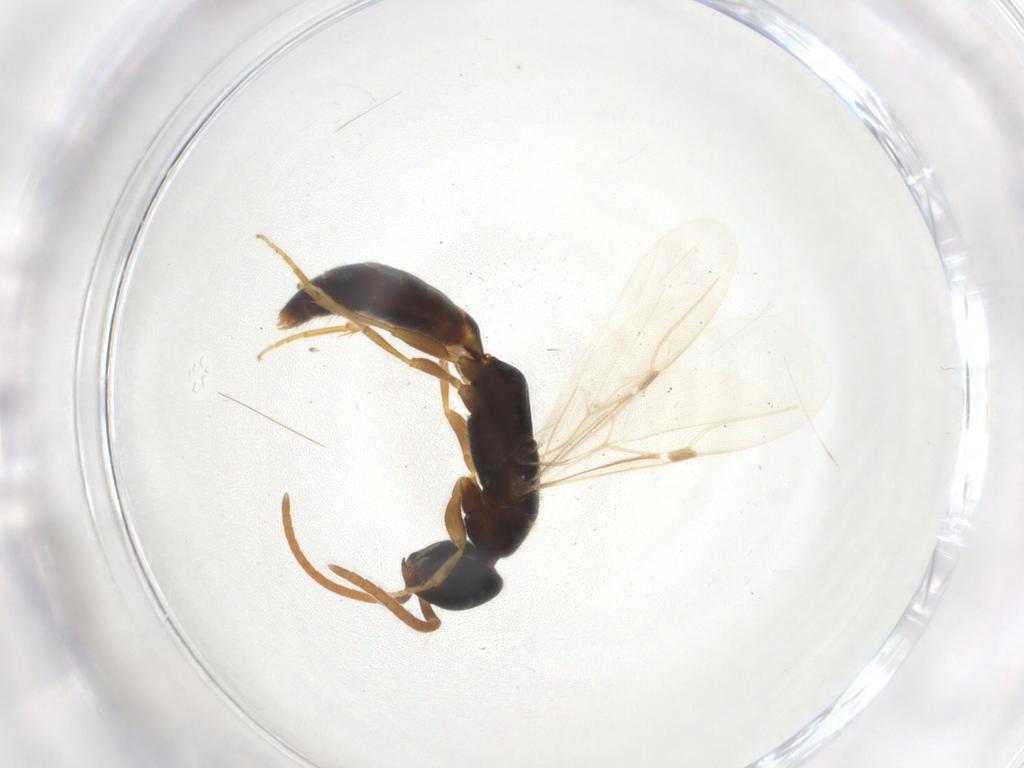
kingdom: Animalia
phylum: Arthropoda
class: Insecta
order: Hymenoptera
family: Bethylidae
